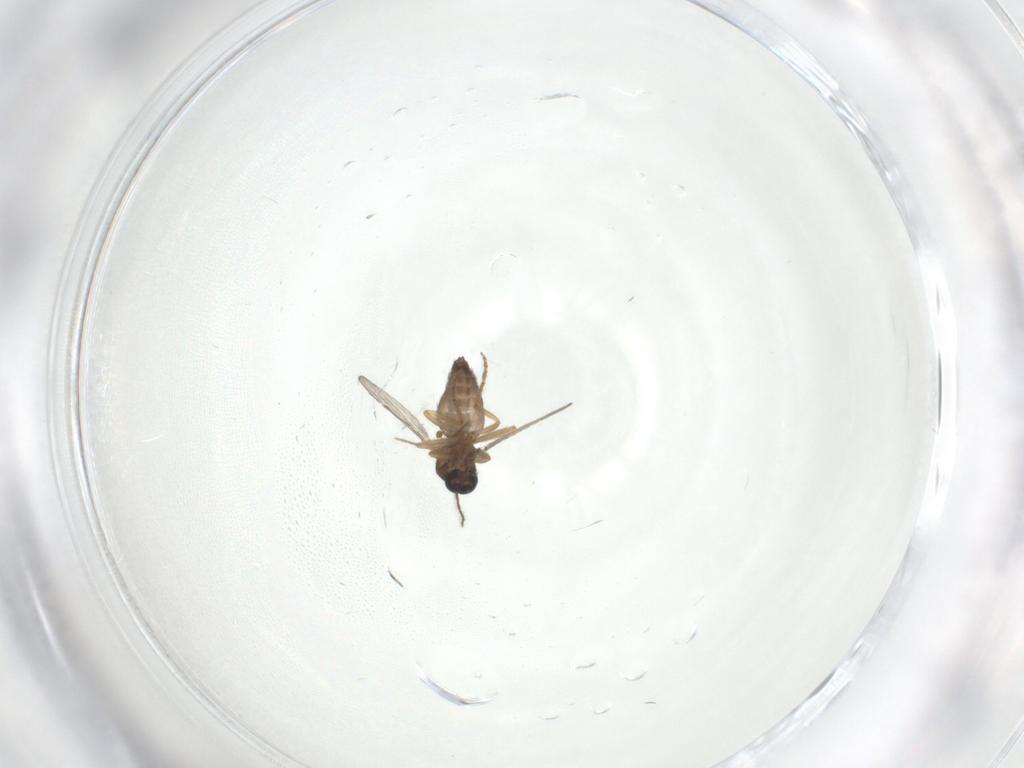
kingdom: Animalia
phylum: Arthropoda
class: Insecta
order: Diptera
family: Ceratopogonidae
